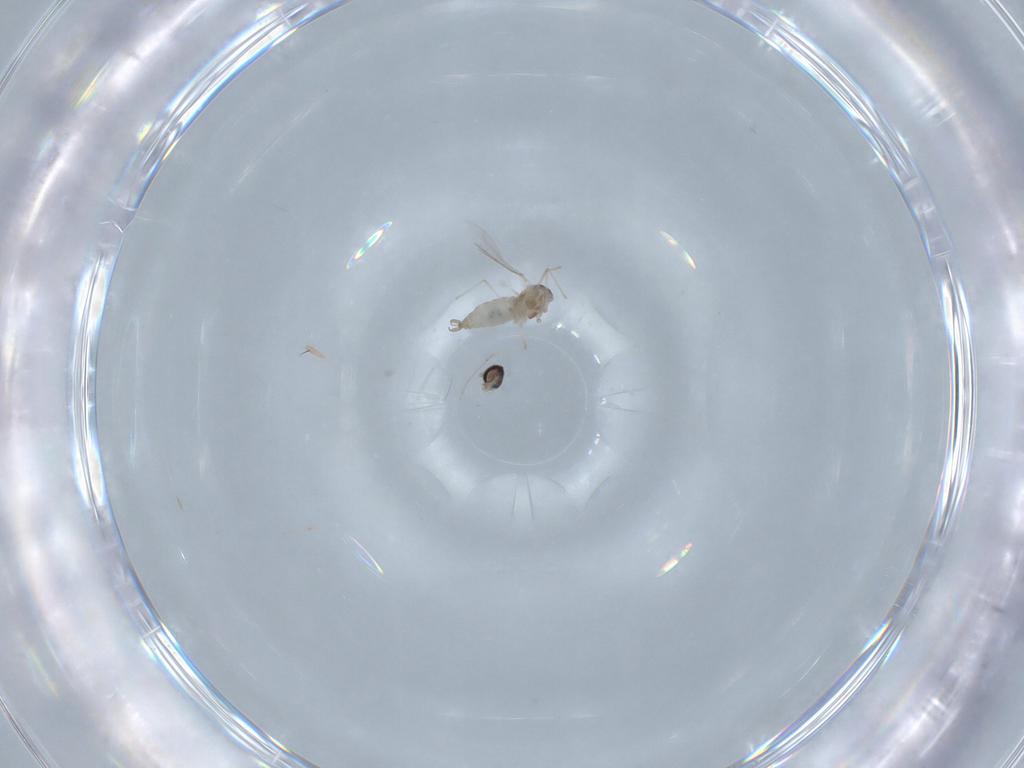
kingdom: Animalia
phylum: Arthropoda
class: Insecta
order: Diptera
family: Cecidomyiidae
